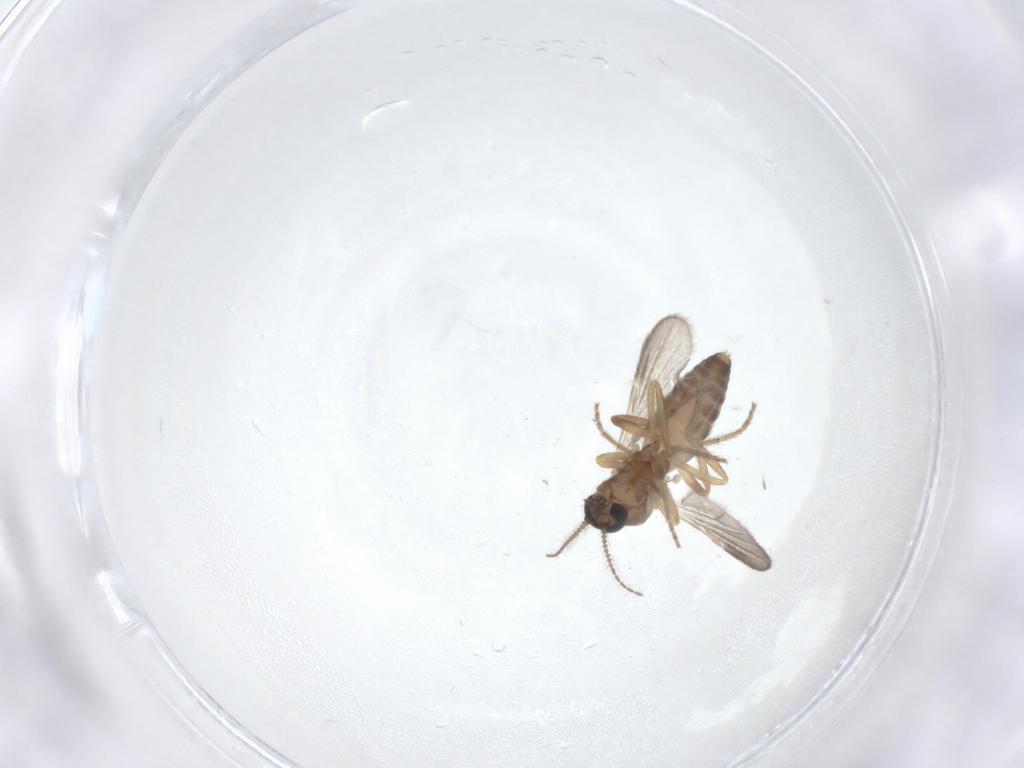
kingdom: Animalia
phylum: Arthropoda
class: Insecta
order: Diptera
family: Ceratopogonidae
